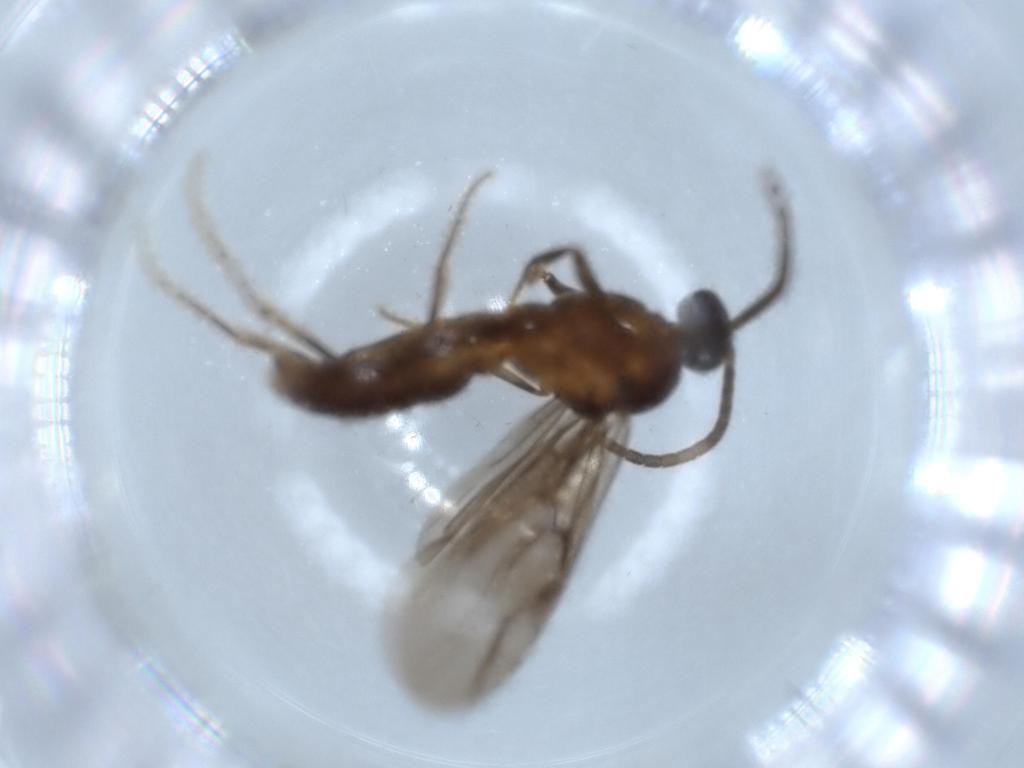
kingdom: Animalia
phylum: Arthropoda
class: Insecta
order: Hymenoptera
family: Formicidae
